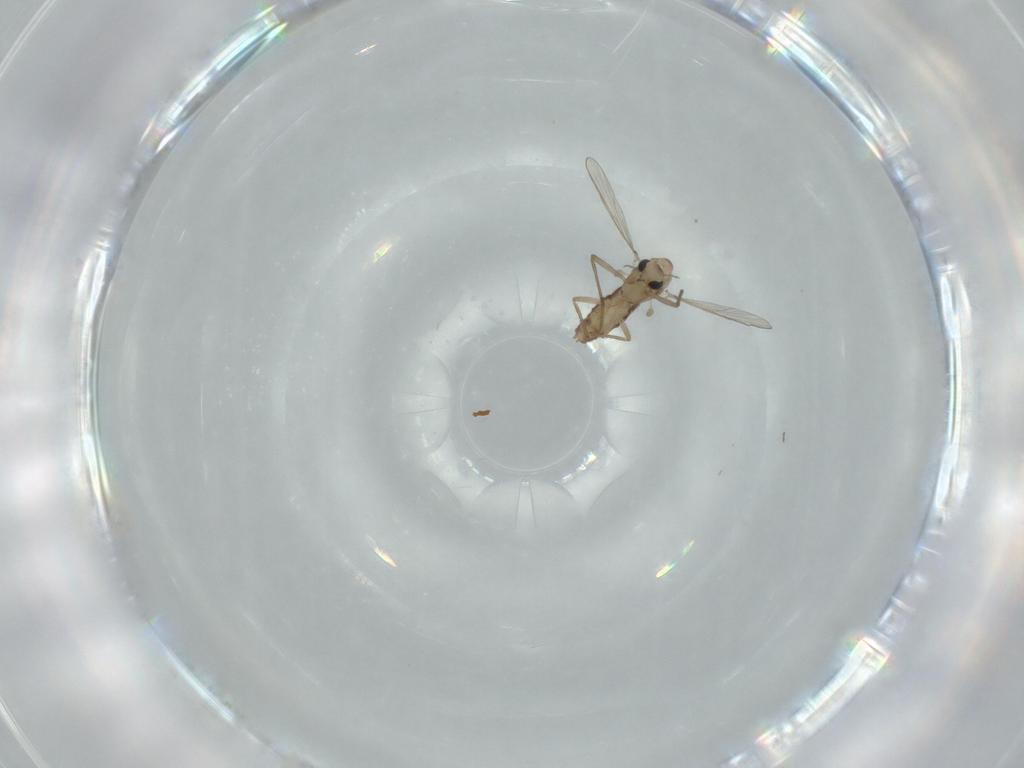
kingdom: Animalia
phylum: Arthropoda
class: Insecta
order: Diptera
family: Chironomidae
